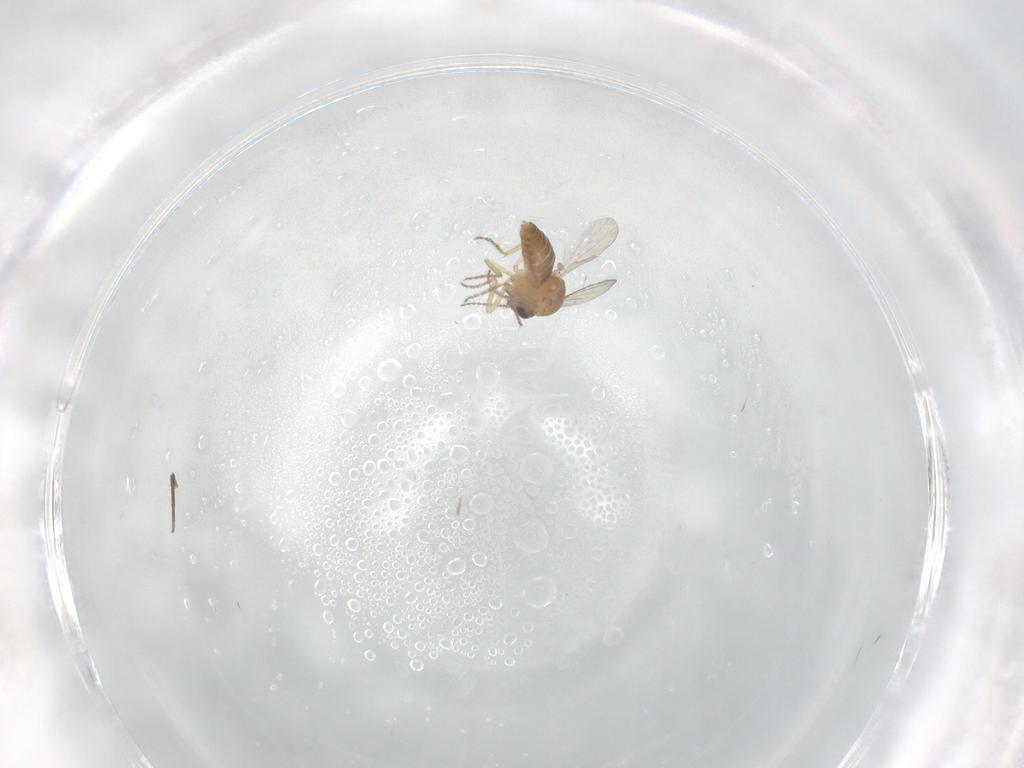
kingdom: Animalia
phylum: Arthropoda
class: Insecta
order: Diptera
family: Ceratopogonidae
